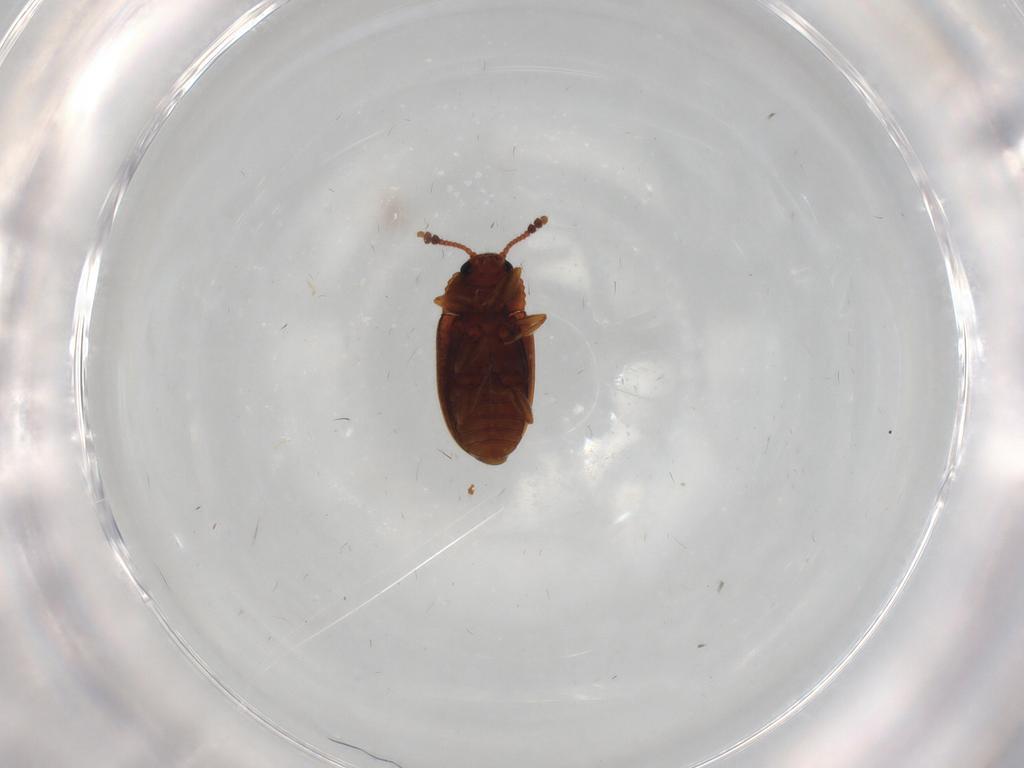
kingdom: Animalia
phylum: Arthropoda
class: Insecta
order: Coleoptera
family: Erotylidae
